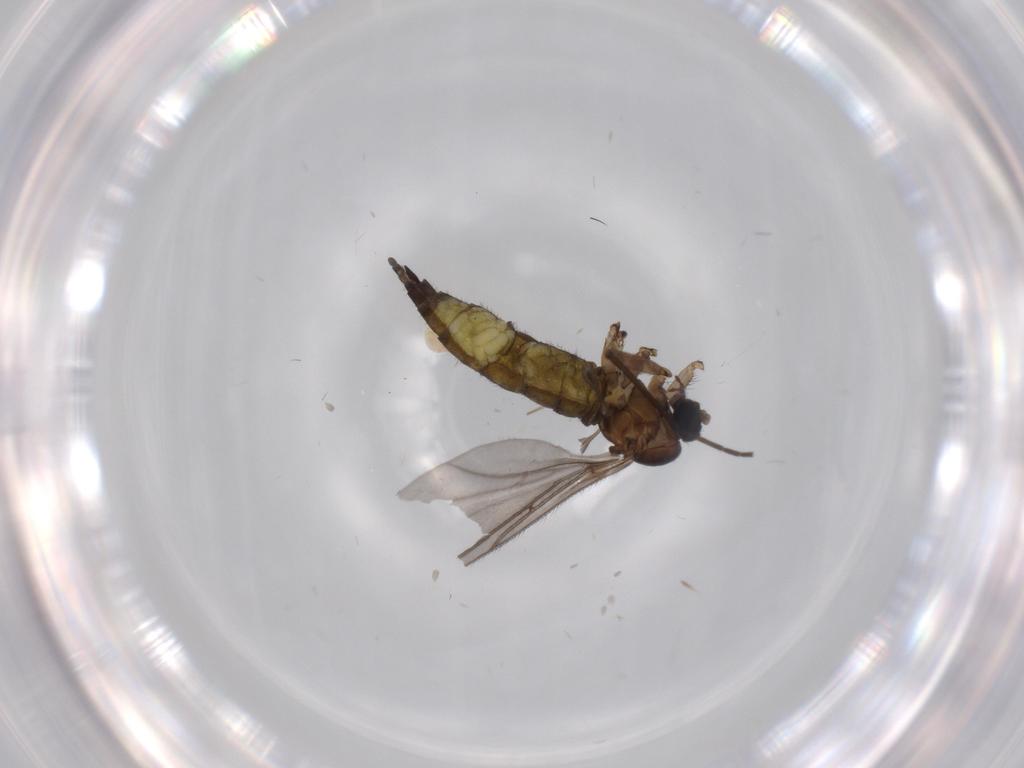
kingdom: Animalia
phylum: Arthropoda
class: Insecta
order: Diptera
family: Sciaridae
